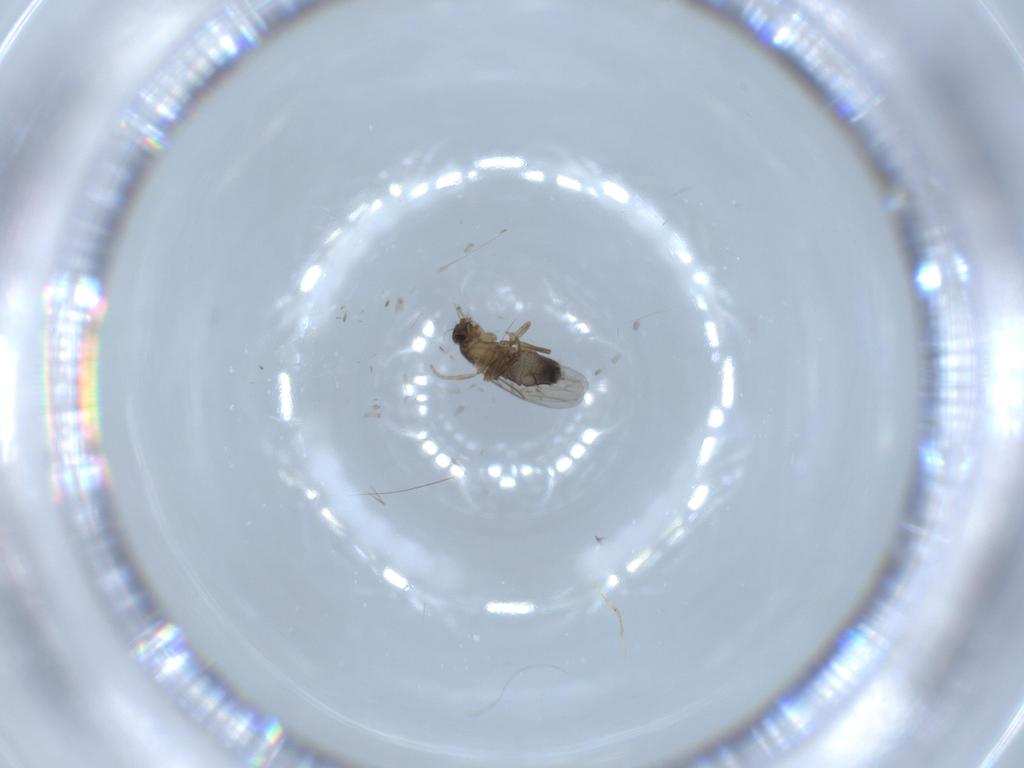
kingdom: Animalia
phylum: Arthropoda
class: Insecta
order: Diptera
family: Phoridae
